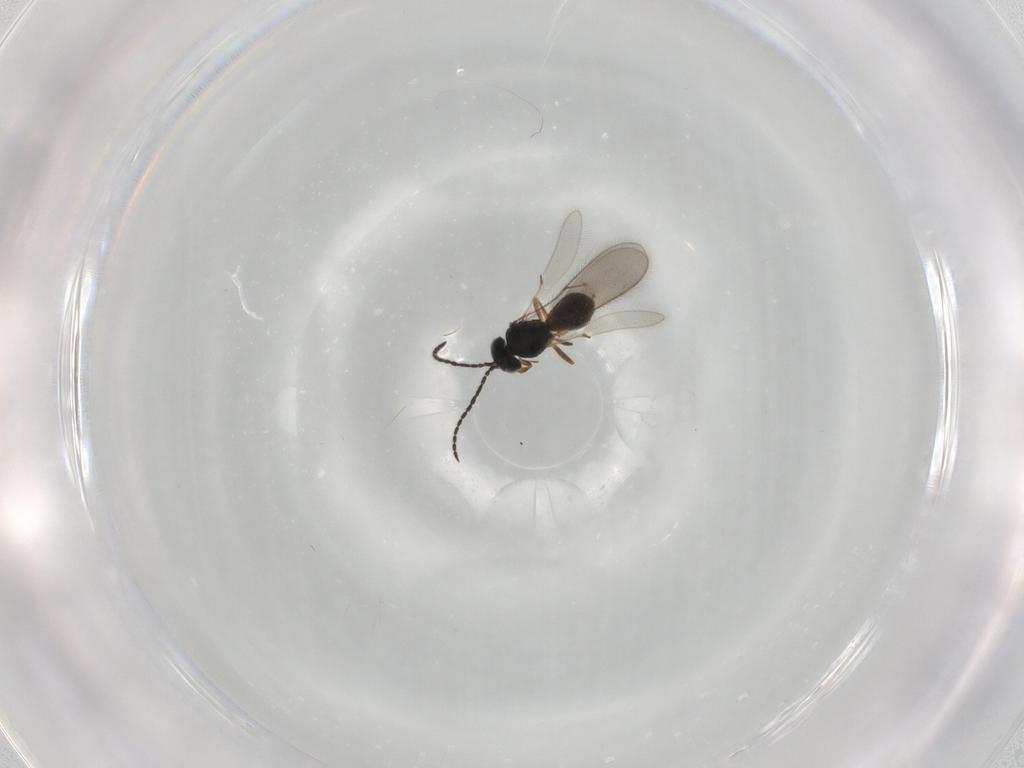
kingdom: Animalia
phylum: Arthropoda
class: Insecta
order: Hymenoptera
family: Scelionidae
